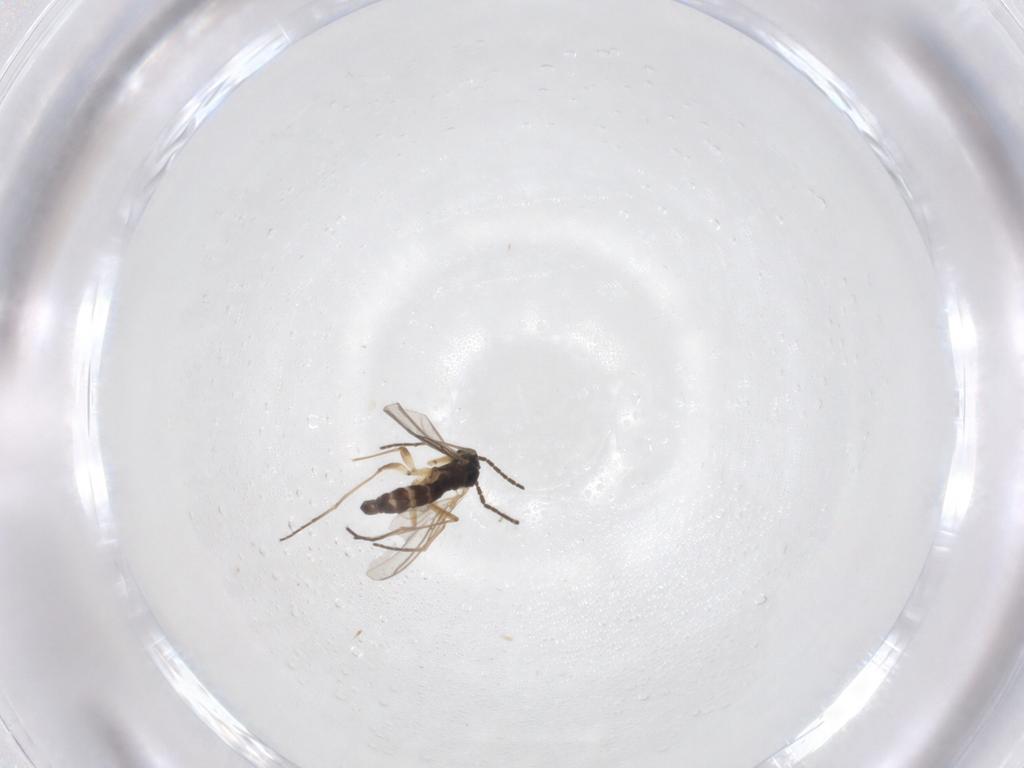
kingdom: Animalia
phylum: Arthropoda
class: Insecta
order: Diptera
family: Sciaridae
